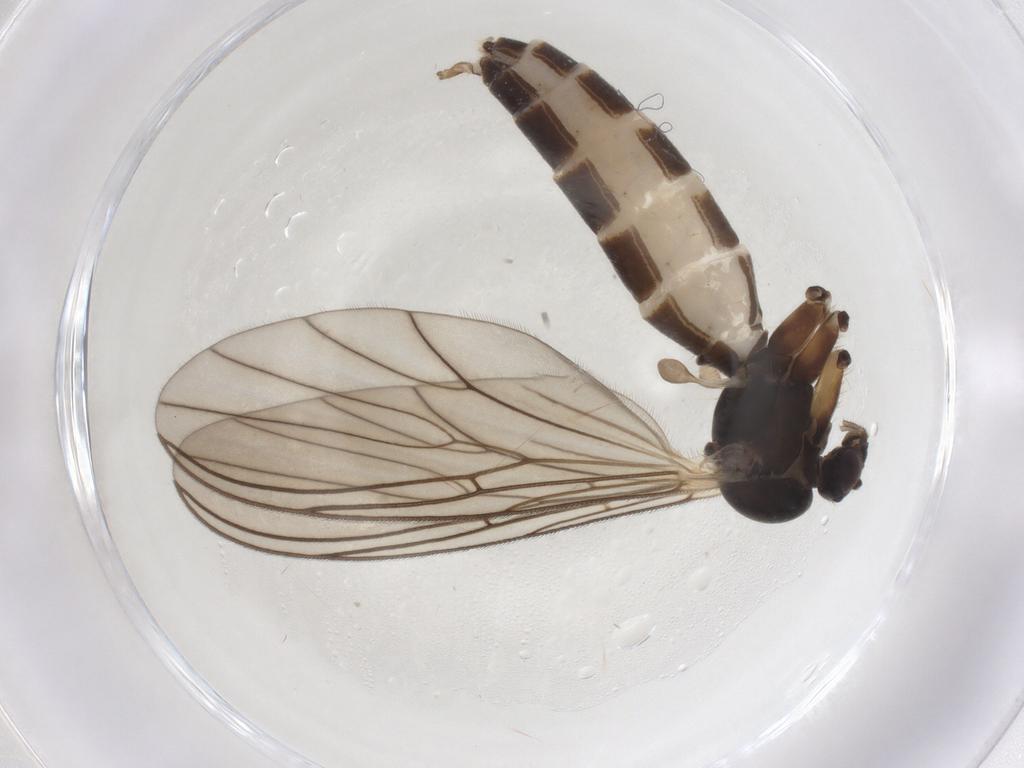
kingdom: Animalia
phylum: Arthropoda
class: Insecta
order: Diptera
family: Mycetophilidae
